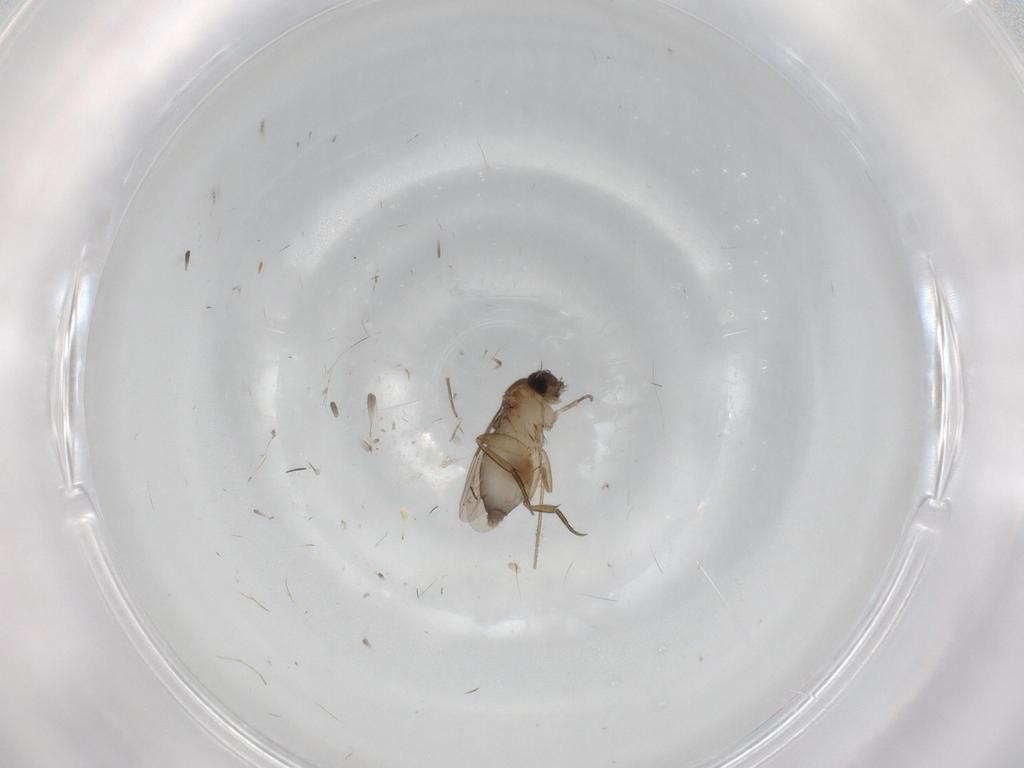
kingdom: Animalia
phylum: Arthropoda
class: Insecta
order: Diptera
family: Phoridae
